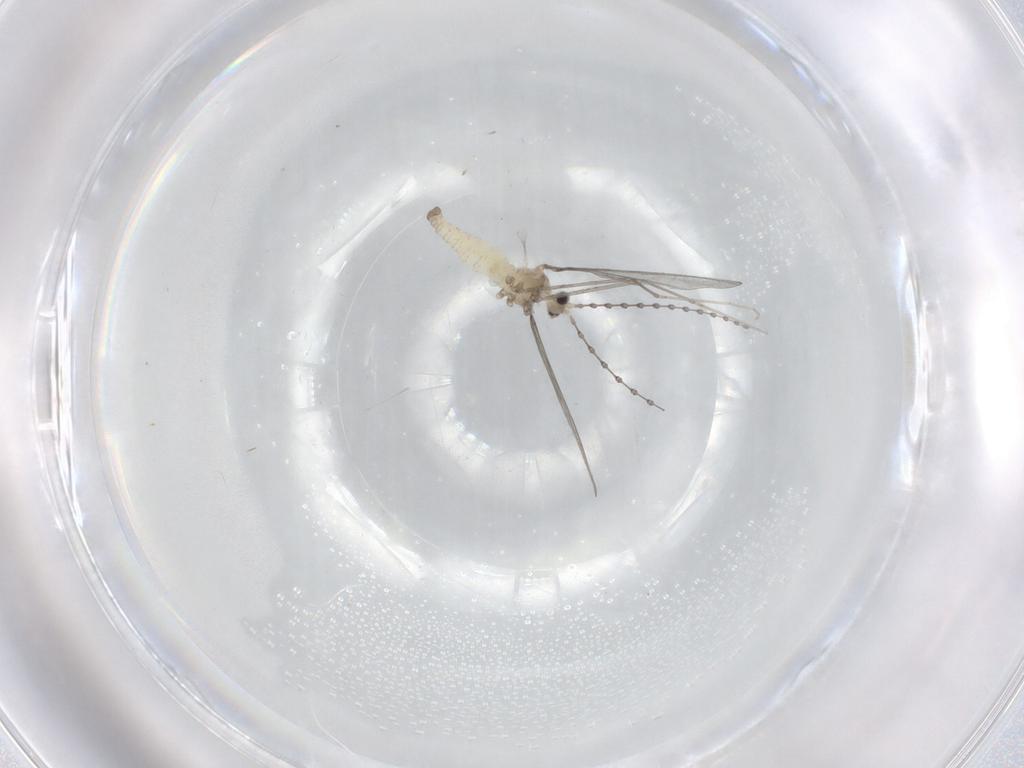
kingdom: Animalia
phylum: Arthropoda
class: Insecta
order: Diptera
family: Cecidomyiidae
